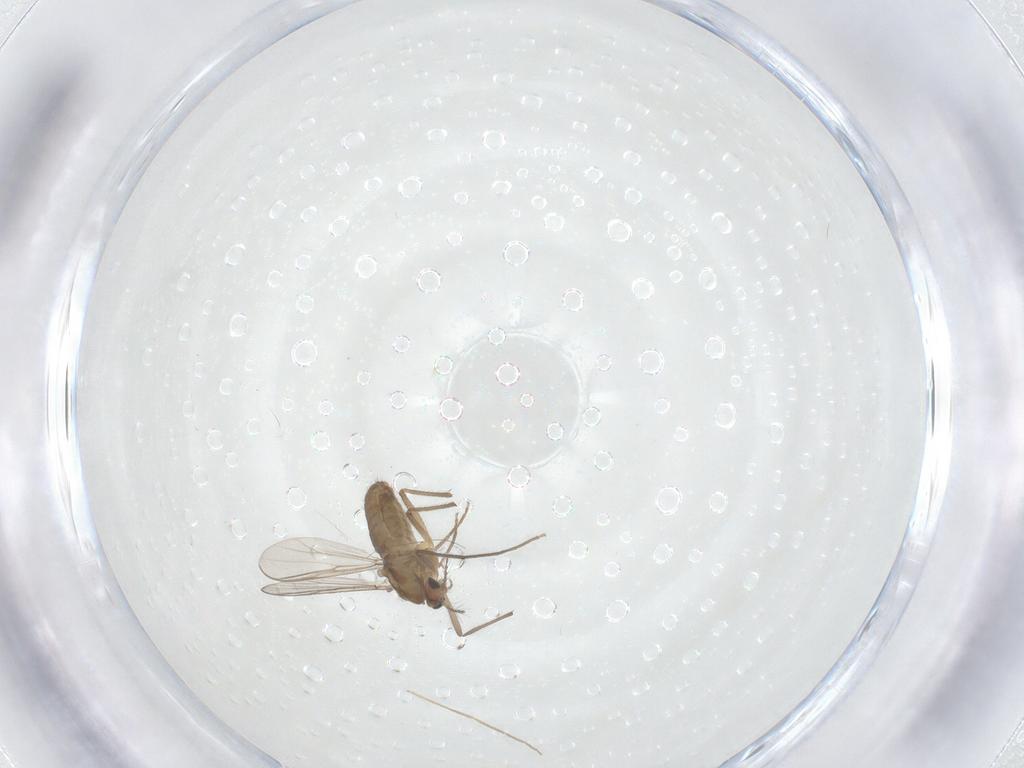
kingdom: Animalia
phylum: Arthropoda
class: Insecta
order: Diptera
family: Chironomidae
